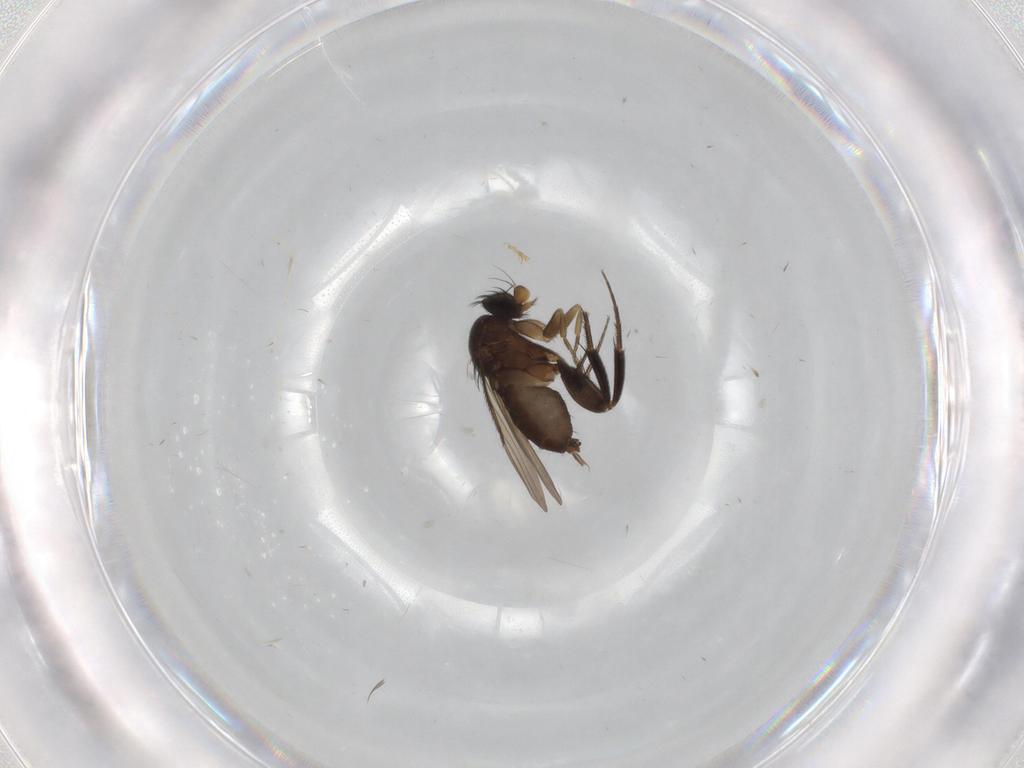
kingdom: Animalia
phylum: Arthropoda
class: Insecta
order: Diptera
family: Phoridae
